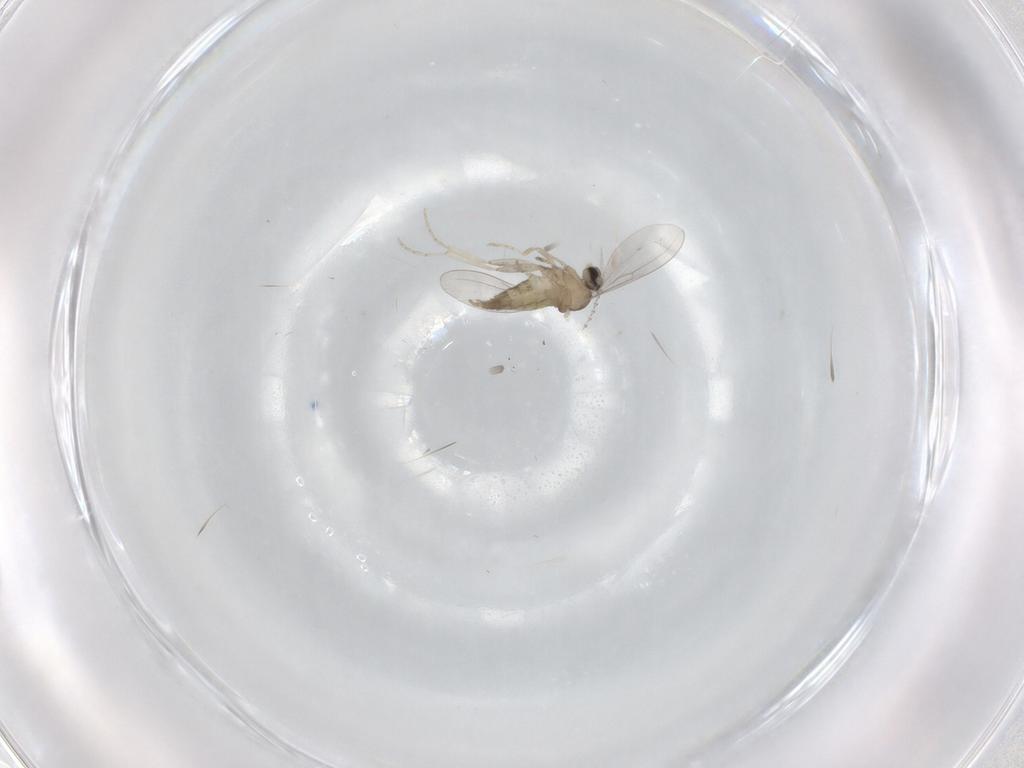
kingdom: Animalia
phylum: Arthropoda
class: Insecta
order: Diptera
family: Cecidomyiidae
